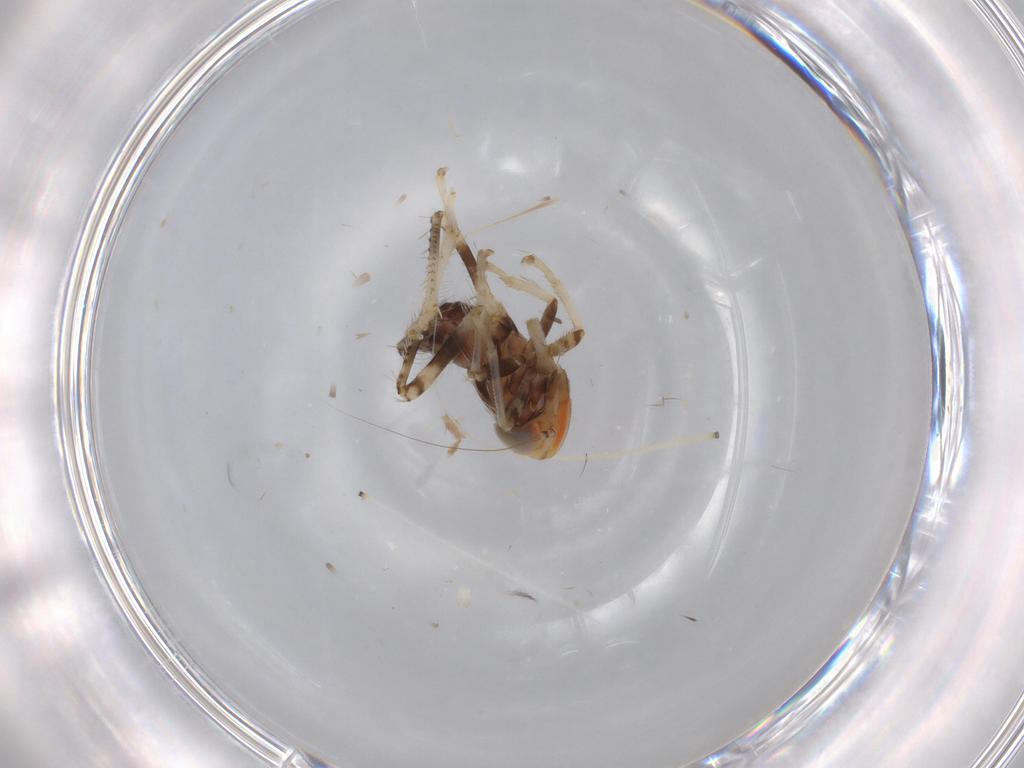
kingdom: Animalia
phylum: Arthropoda
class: Insecta
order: Hemiptera
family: Cicadellidae
